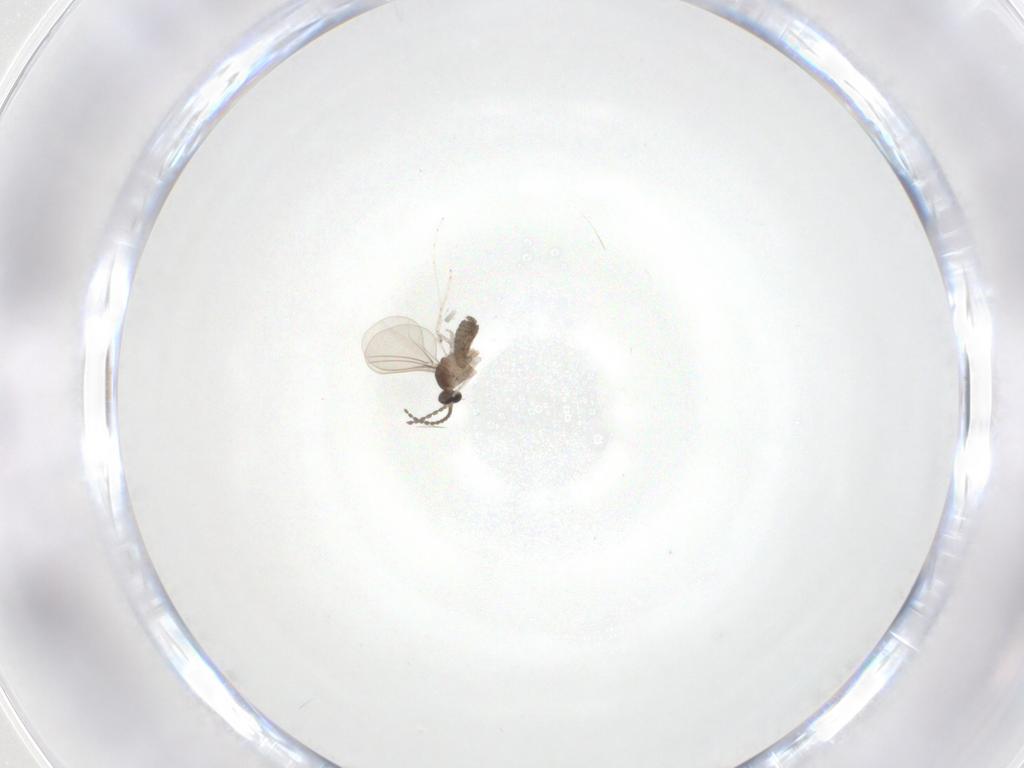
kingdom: Animalia
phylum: Arthropoda
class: Insecta
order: Diptera
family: Cecidomyiidae
